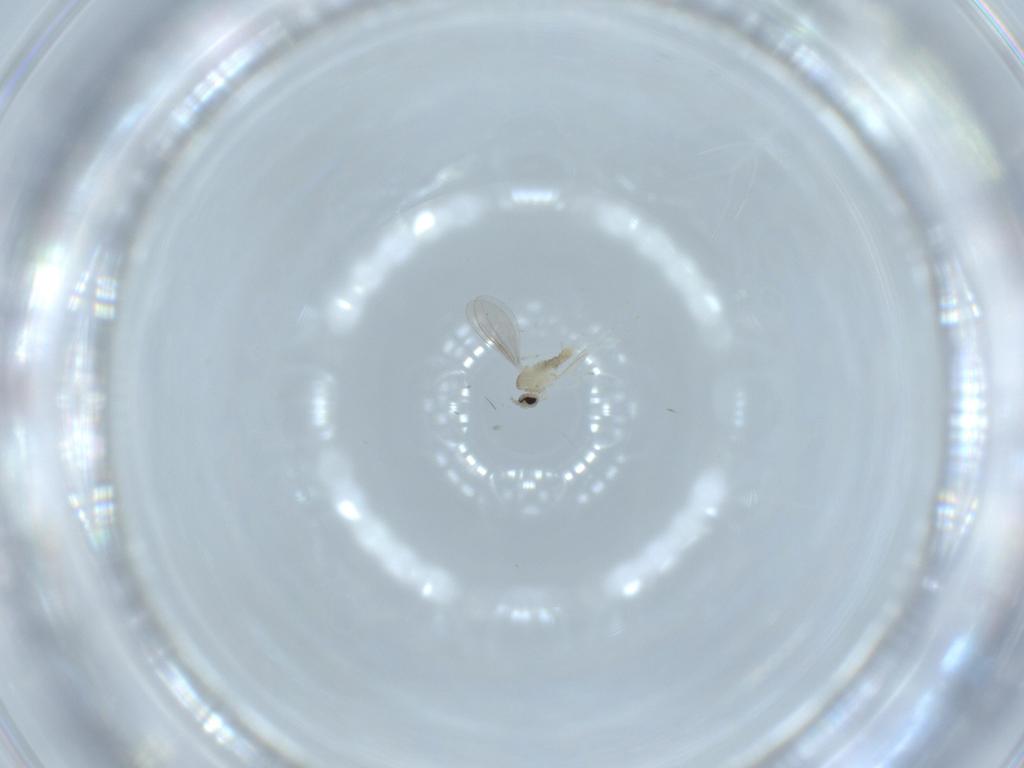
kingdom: Animalia
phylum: Arthropoda
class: Insecta
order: Diptera
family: Cecidomyiidae
